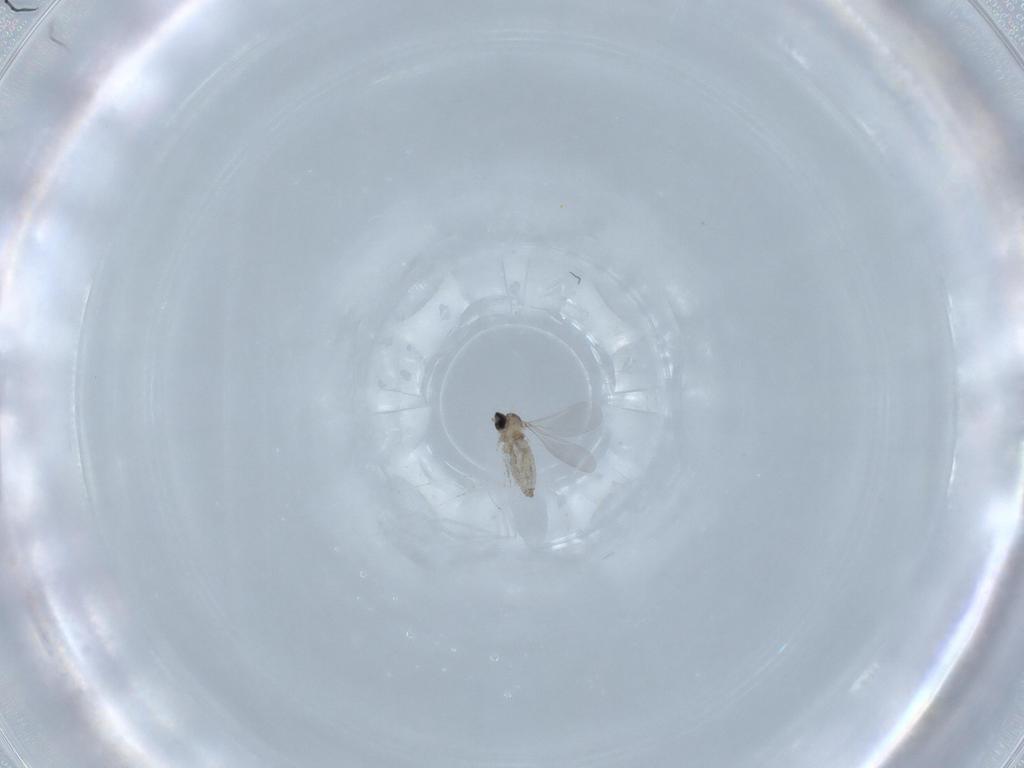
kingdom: Animalia
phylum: Arthropoda
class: Insecta
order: Diptera
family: Cecidomyiidae
